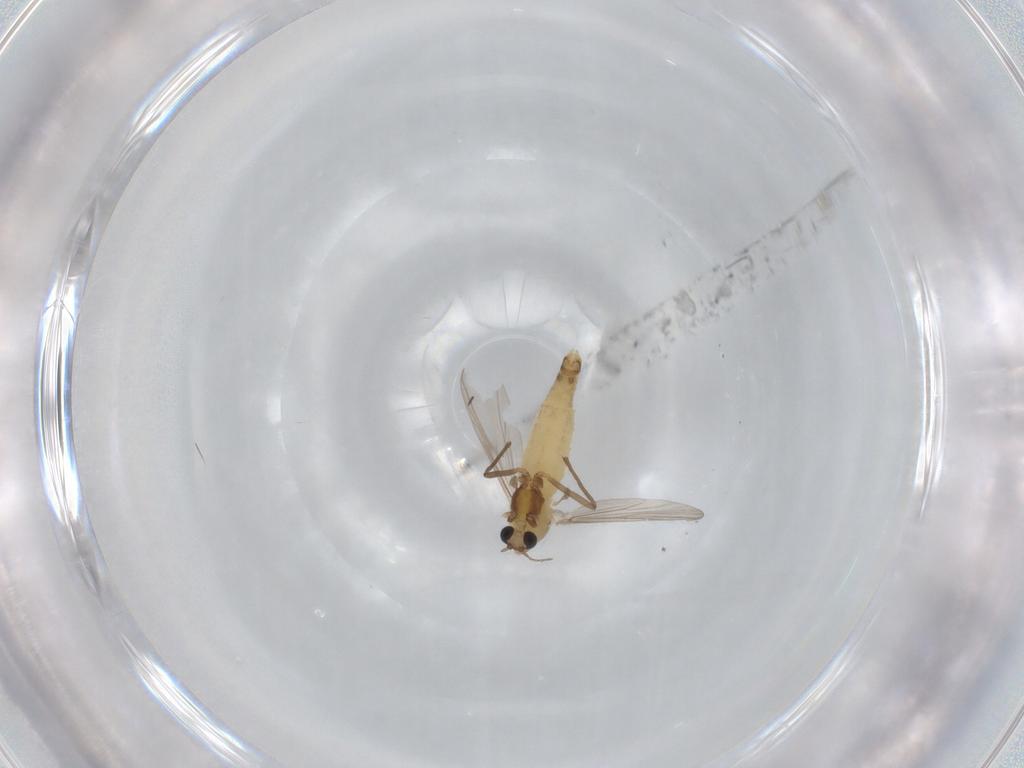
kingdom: Animalia
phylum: Arthropoda
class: Insecta
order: Diptera
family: Chironomidae
